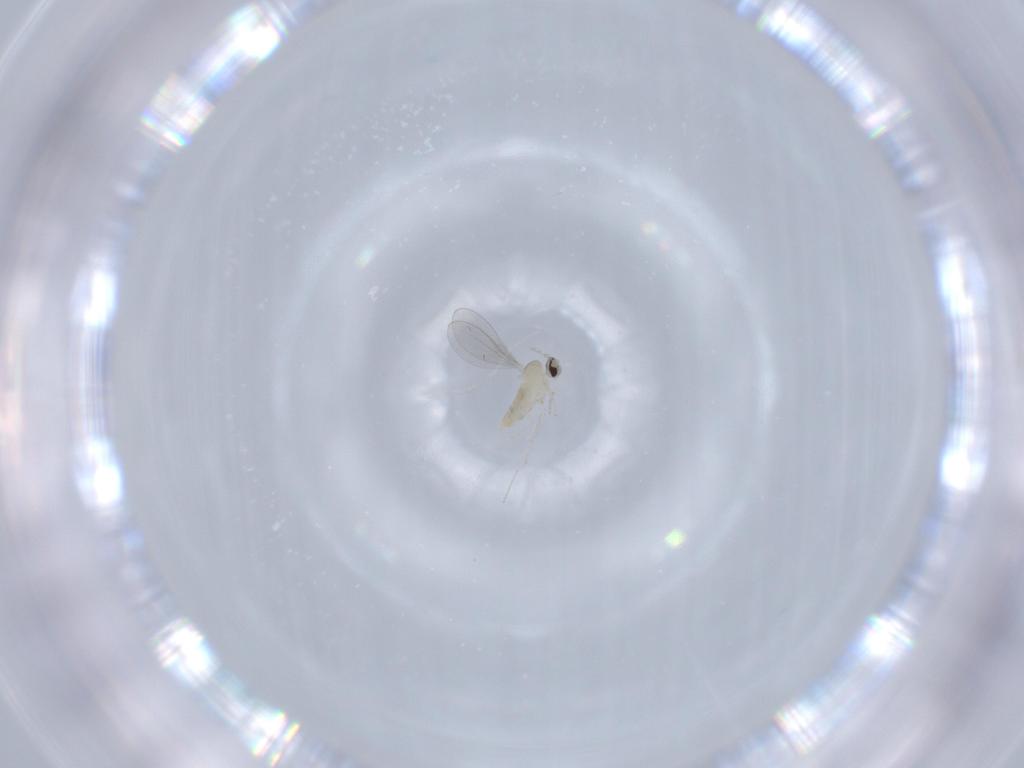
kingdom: Animalia
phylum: Arthropoda
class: Insecta
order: Diptera
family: Cecidomyiidae
